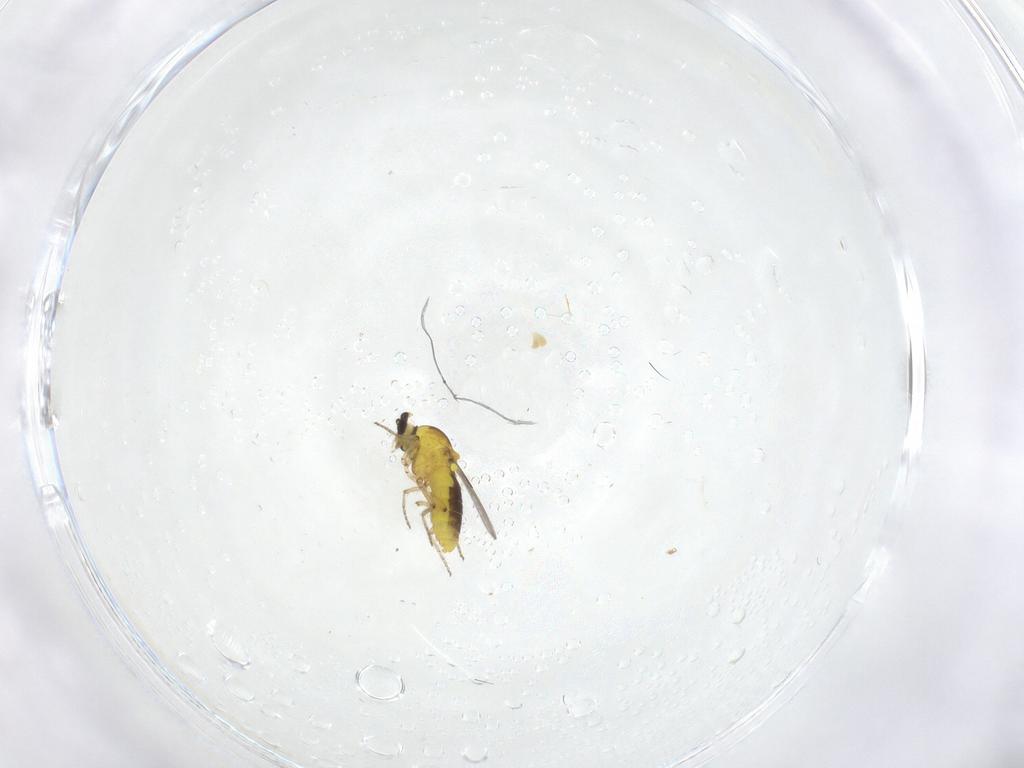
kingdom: Animalia
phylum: Arthropoda
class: Insecta
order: Diptera
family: Ceratopogonidae
